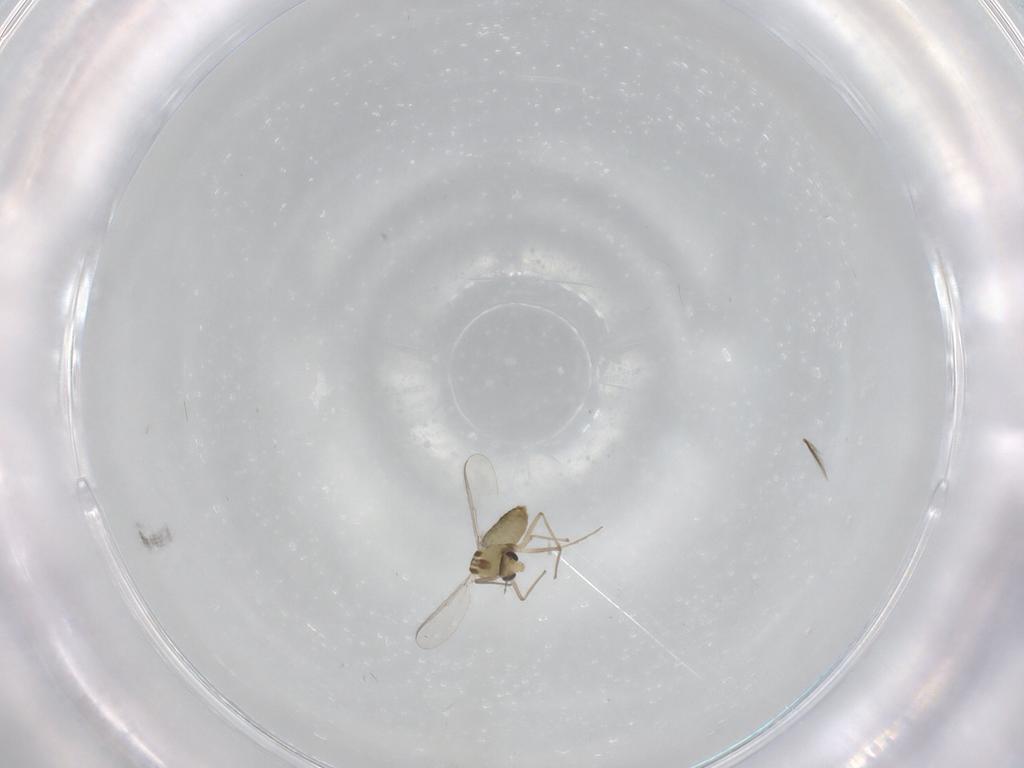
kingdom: Animalia
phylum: Arthropoda
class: Insecta
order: Diptera
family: Chironomidae
